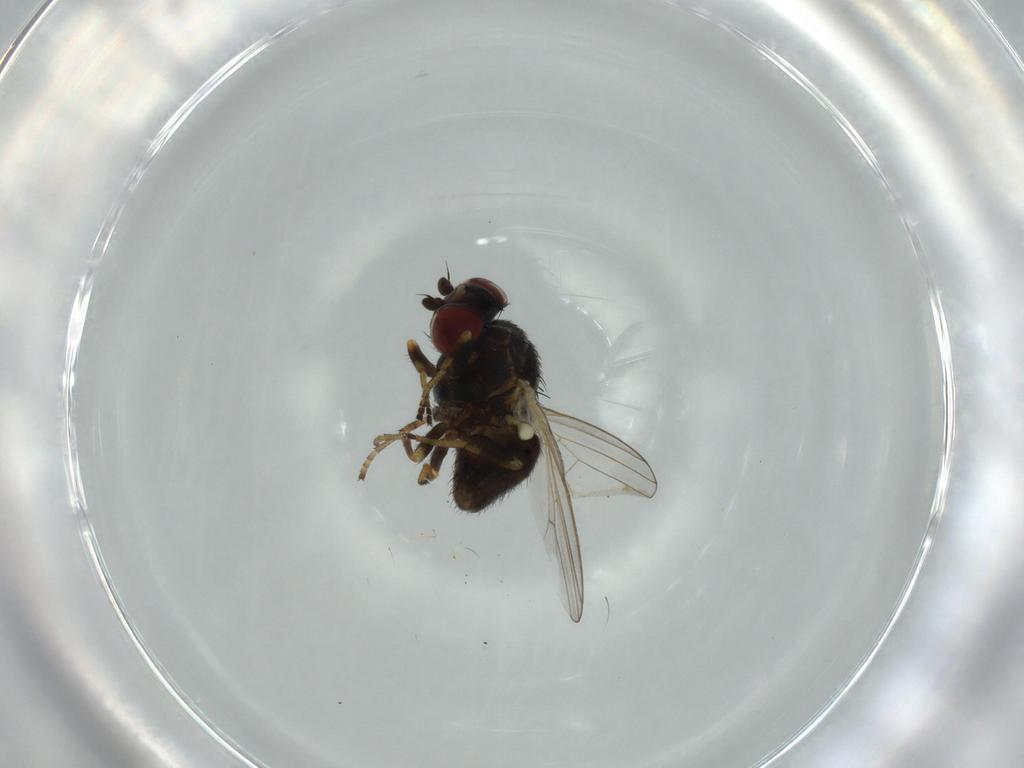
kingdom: Animalia
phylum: Arthropoda
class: Insecta
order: Diptera
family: Chamaemyiidae
